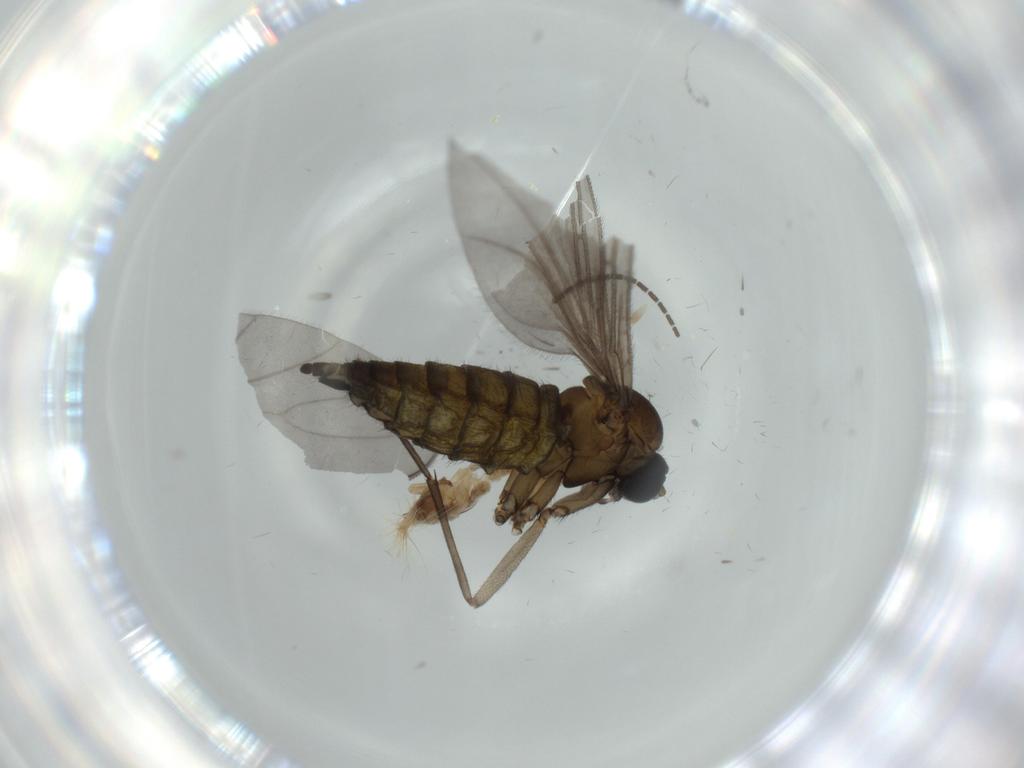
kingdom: Animalia
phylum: Arthropoda
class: Insecta
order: Diptera
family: Sciaridae
